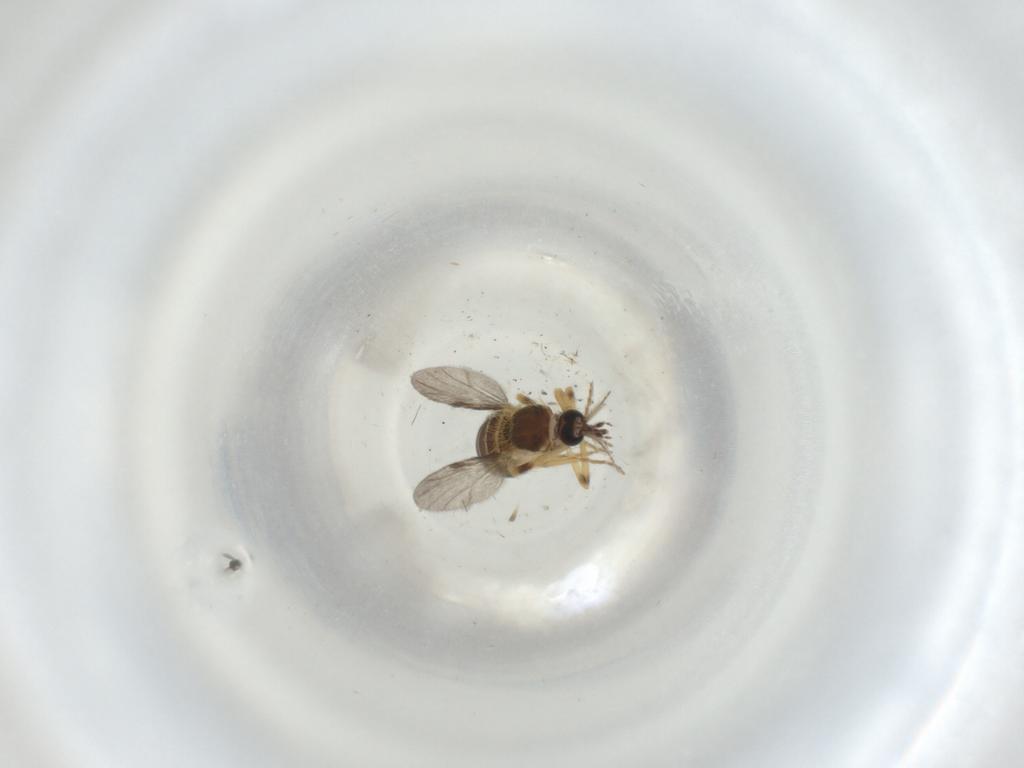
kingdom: Animalia
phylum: Arthropoda
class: Insecta
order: Diptera
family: Ceratopogonidae
